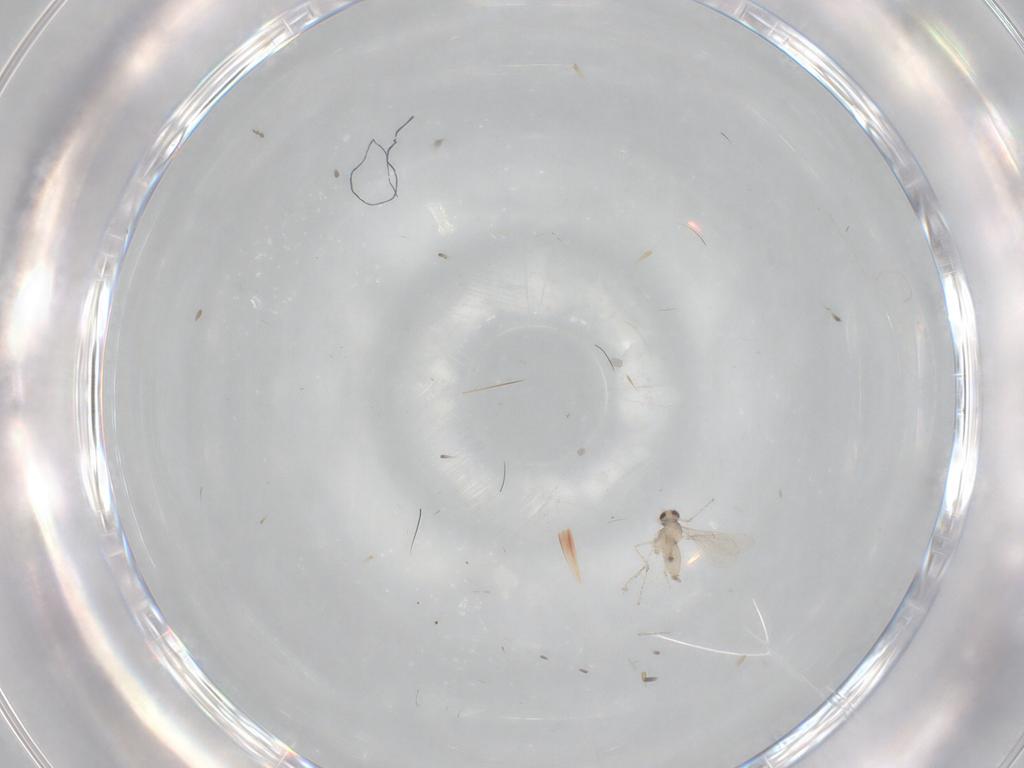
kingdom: Animalia
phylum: Arthropoda
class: Insecta
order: Diptera
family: Cecidomyiidae
